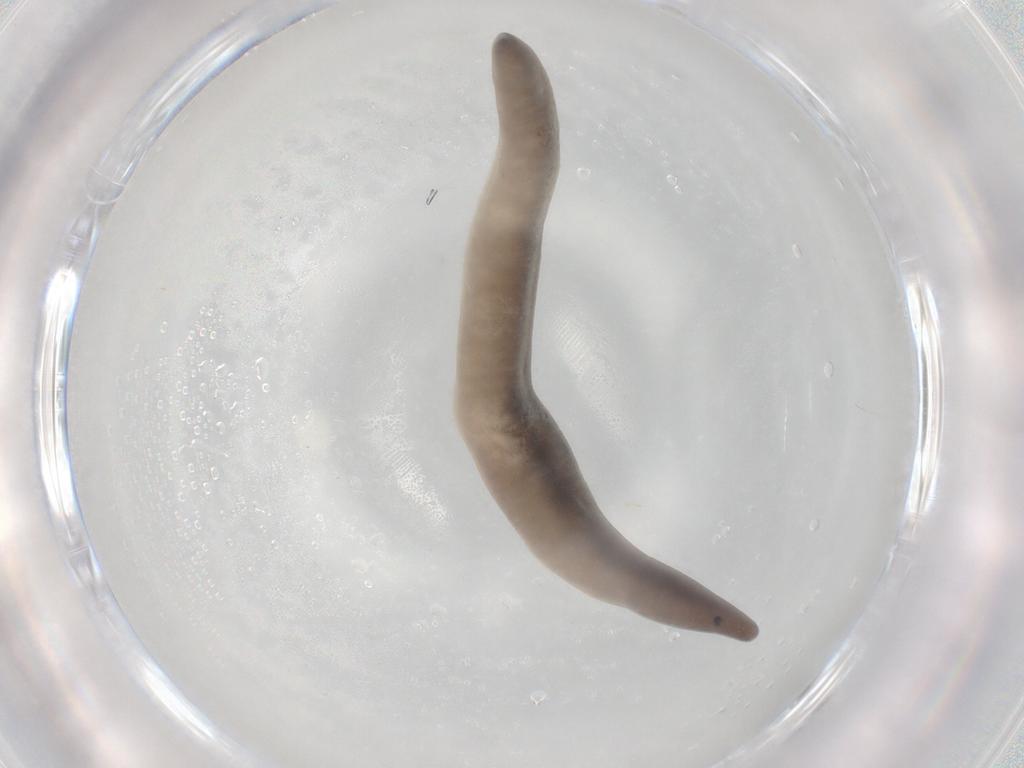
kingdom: Animalia
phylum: Arthropoda
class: Collembola
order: Entomobryomorpha
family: Entomobryidae
